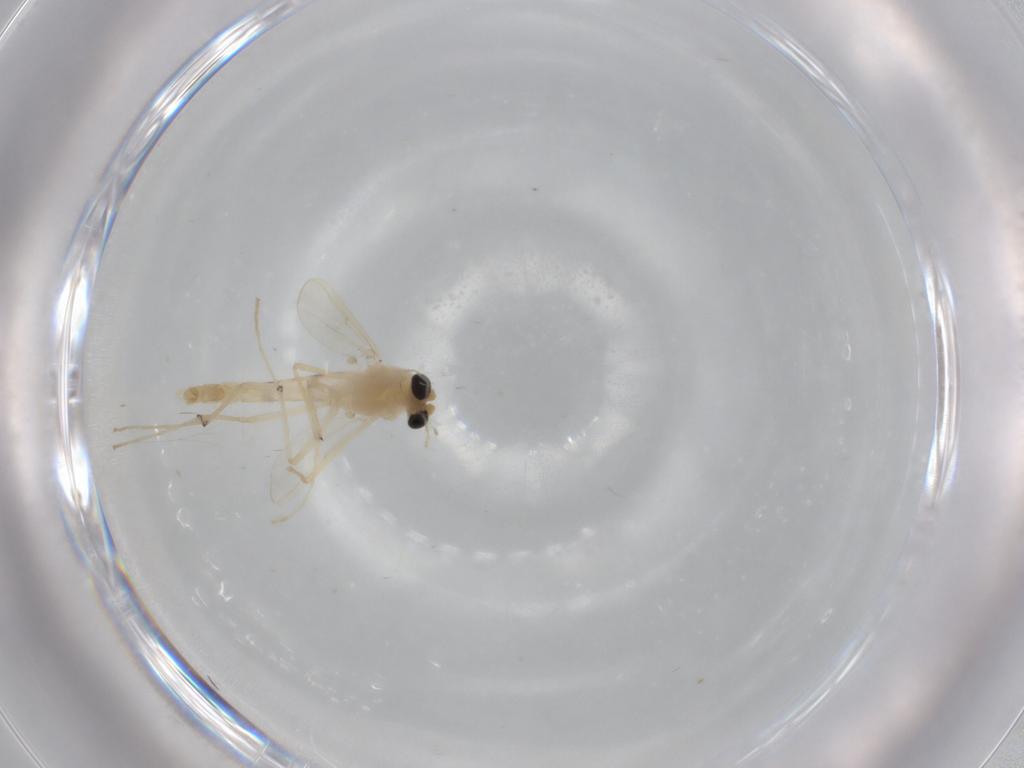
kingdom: Animalia
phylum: Arthropoda
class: Insecta
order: Diptera
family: Chironomidae
